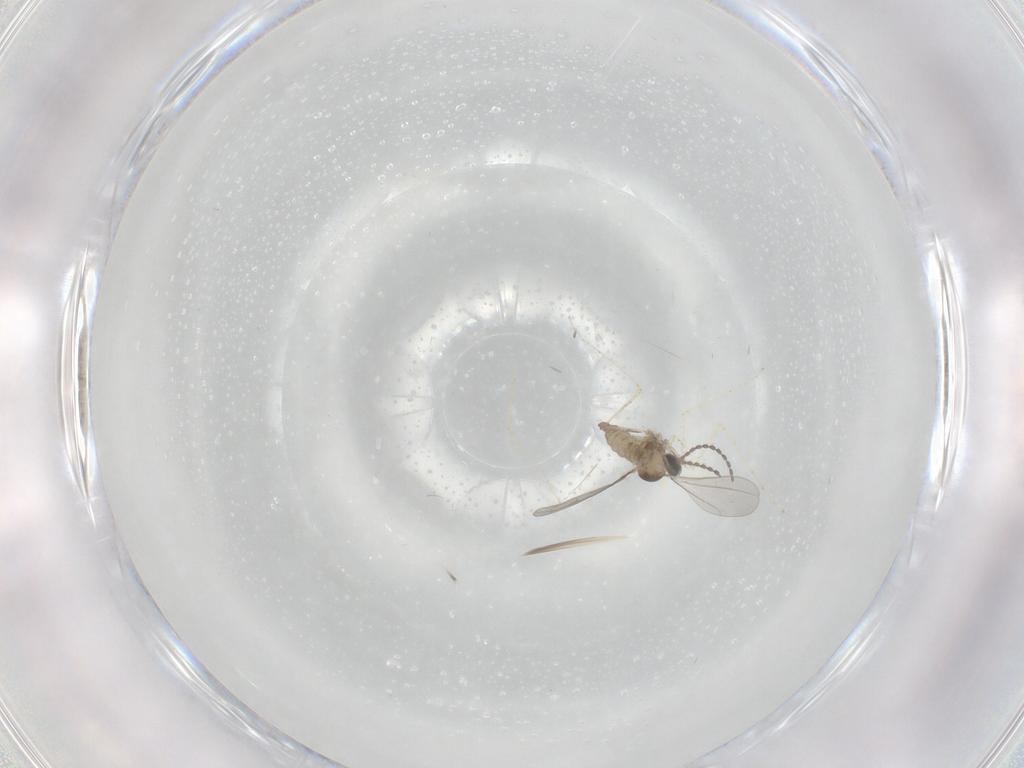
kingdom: Animalia
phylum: Arthropoda
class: Insecta
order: Diptera
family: Cecidomyiidae
